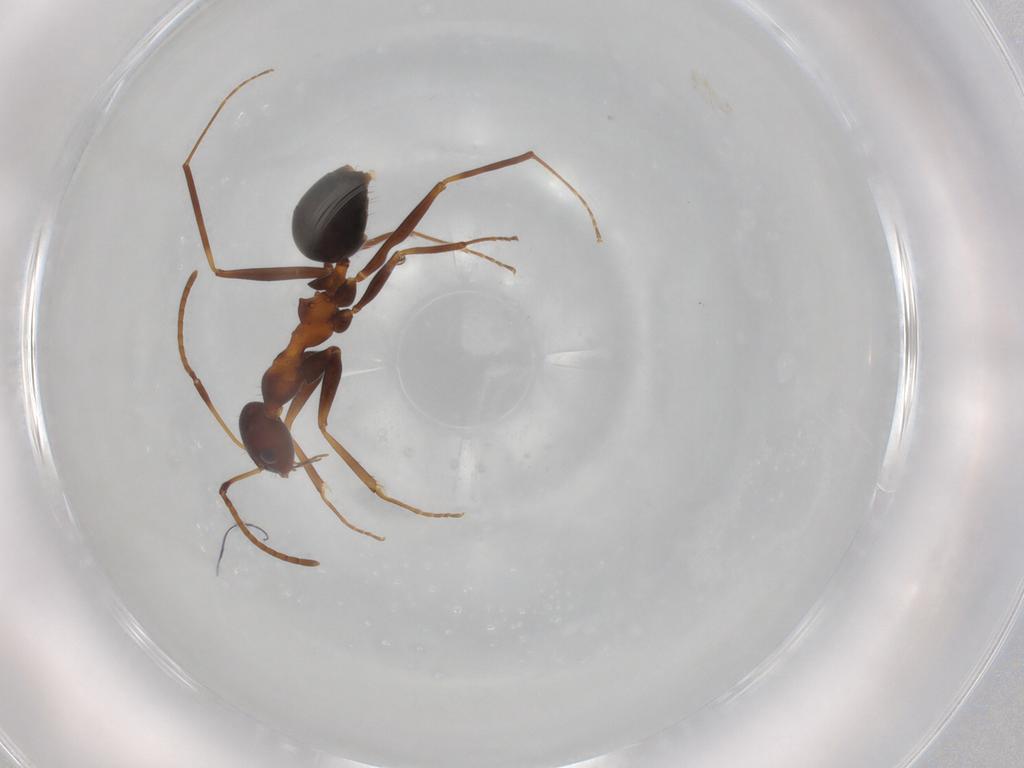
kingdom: Animalia
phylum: Arthropoda
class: Insecta
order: Hymenoptera
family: Formicidae
